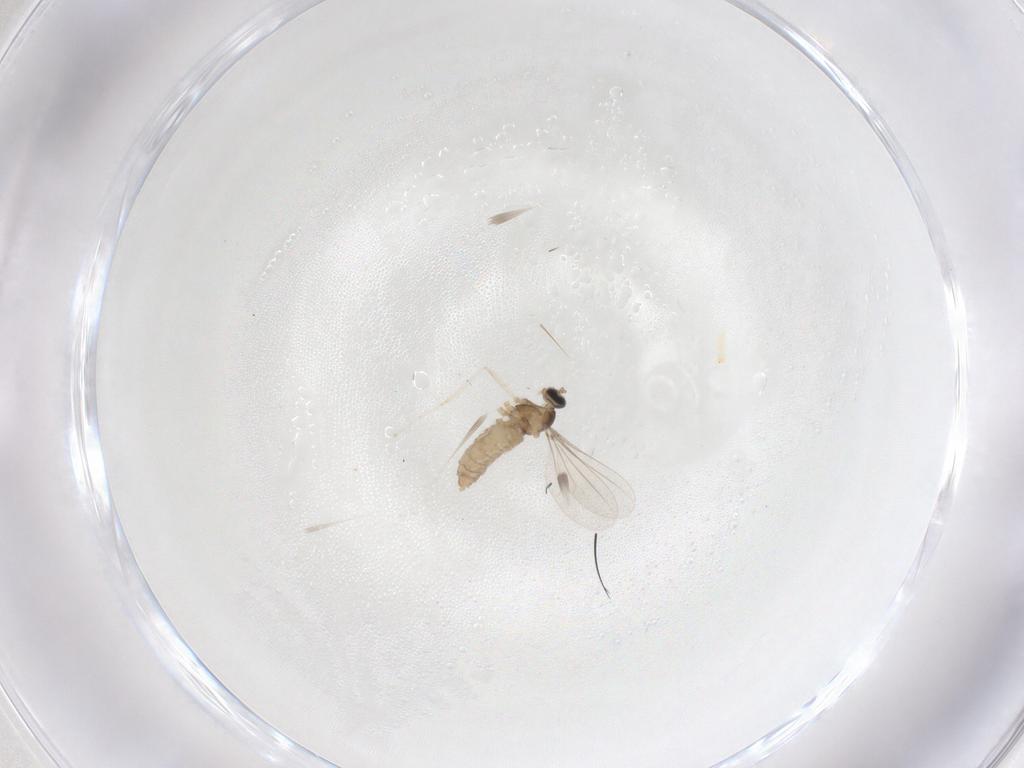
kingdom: Animalia
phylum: Arthropoda
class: Insecta
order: Diptera
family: Cecidomyiidae
